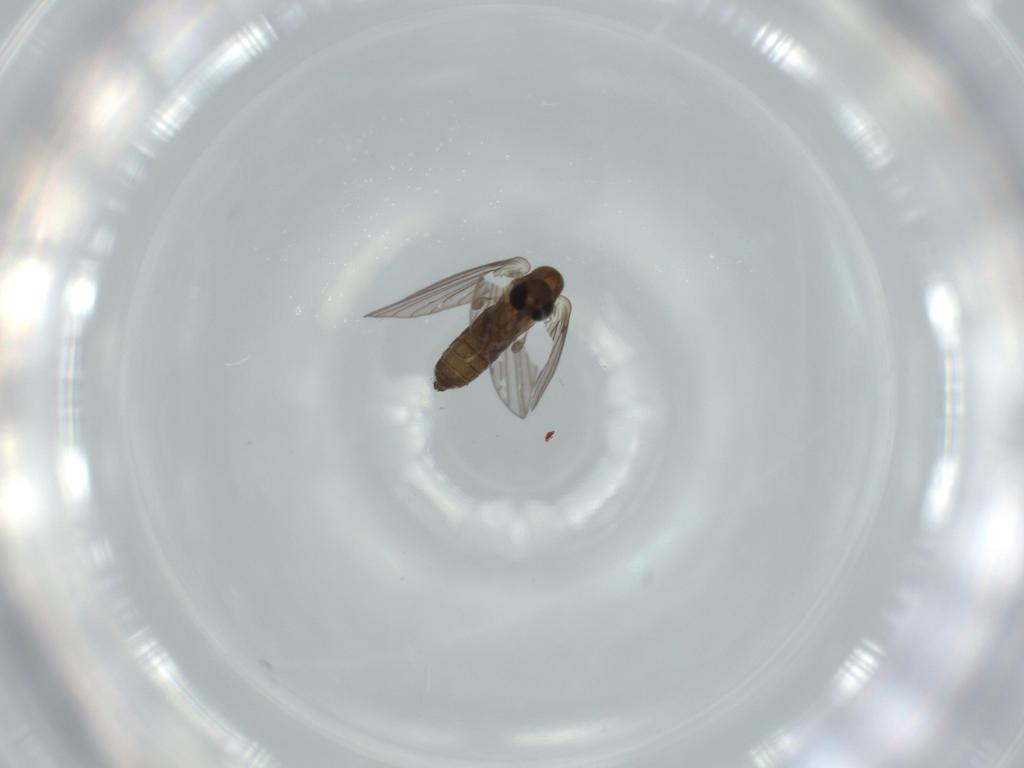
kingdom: Animalia
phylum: Arthropoda
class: Insecta
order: Diptera
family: Psychodidae
